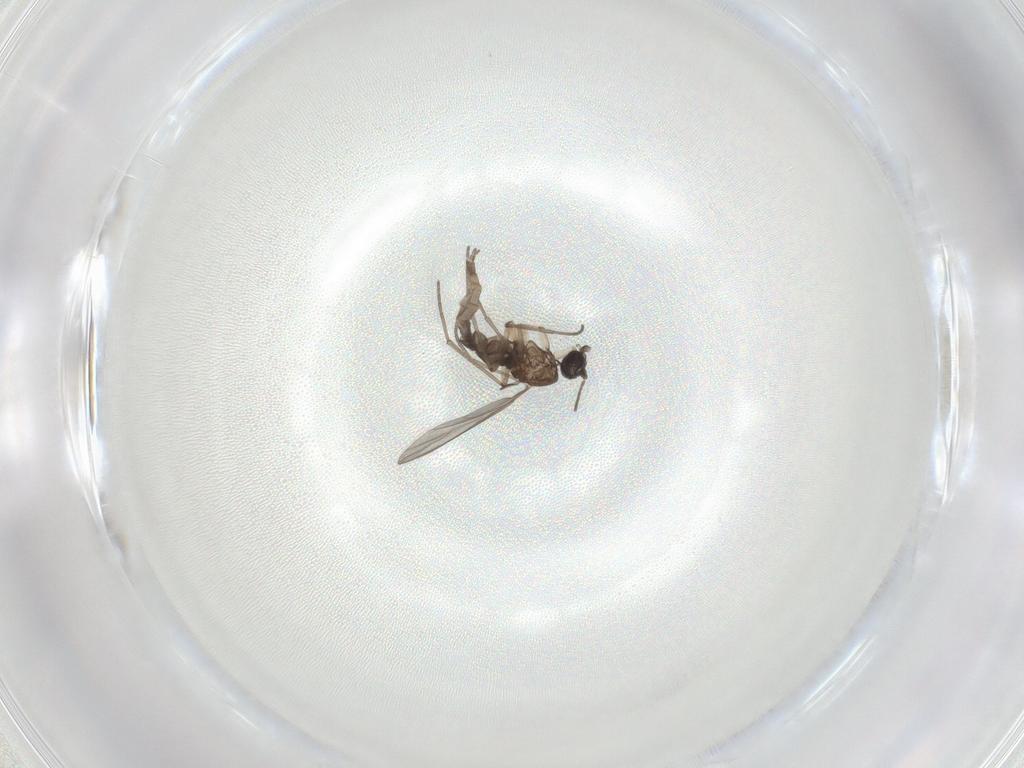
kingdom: Animalia
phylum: Arthropoda
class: Insecta
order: Diptera
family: Sciaridae
